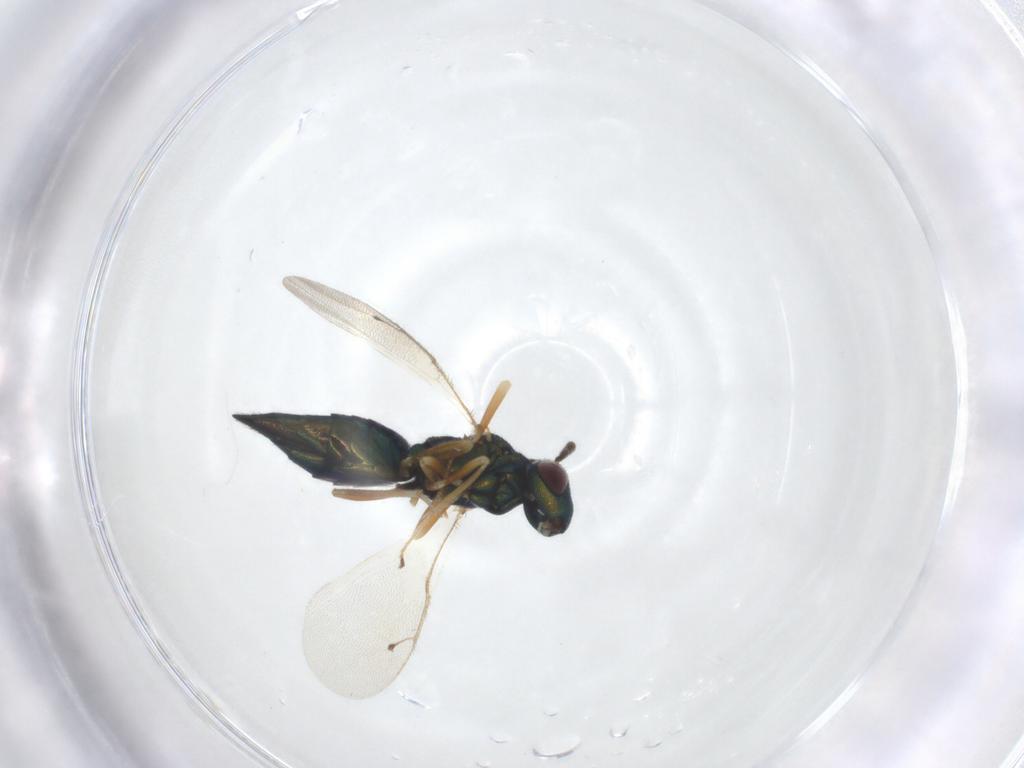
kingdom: Animalia
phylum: Arthropoda
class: Insecta
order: Hymenoptera
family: Pteromalidae
